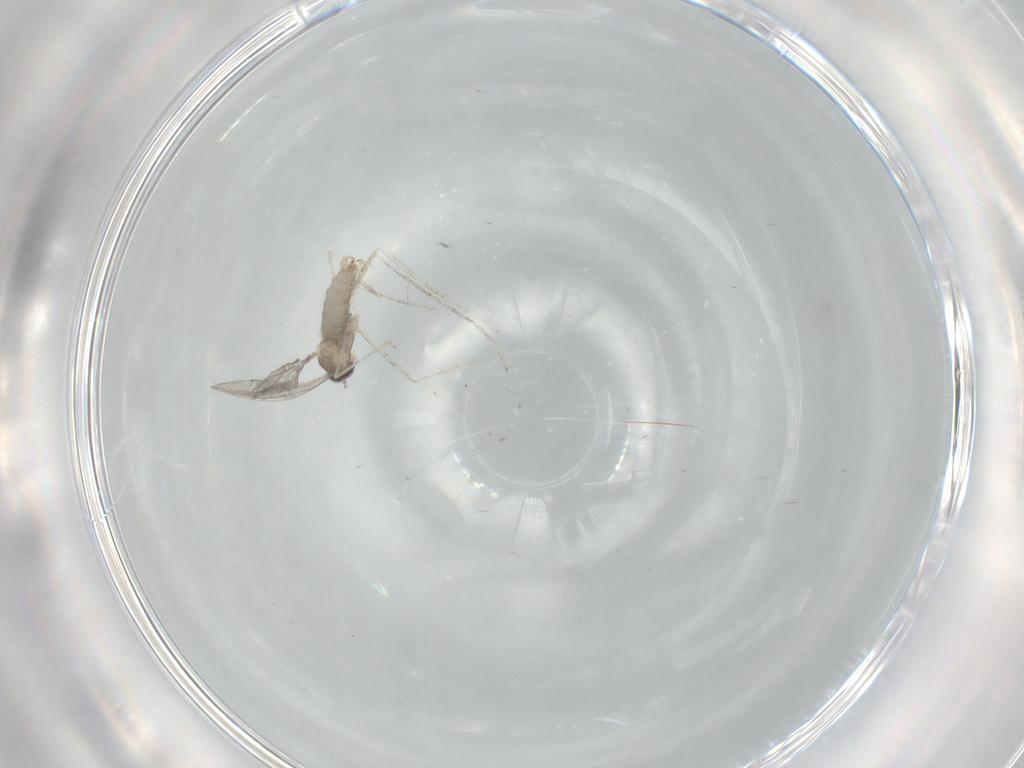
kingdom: Animalia
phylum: Arthropoda
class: Insecta
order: Diptera
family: Cecidomyiidae
